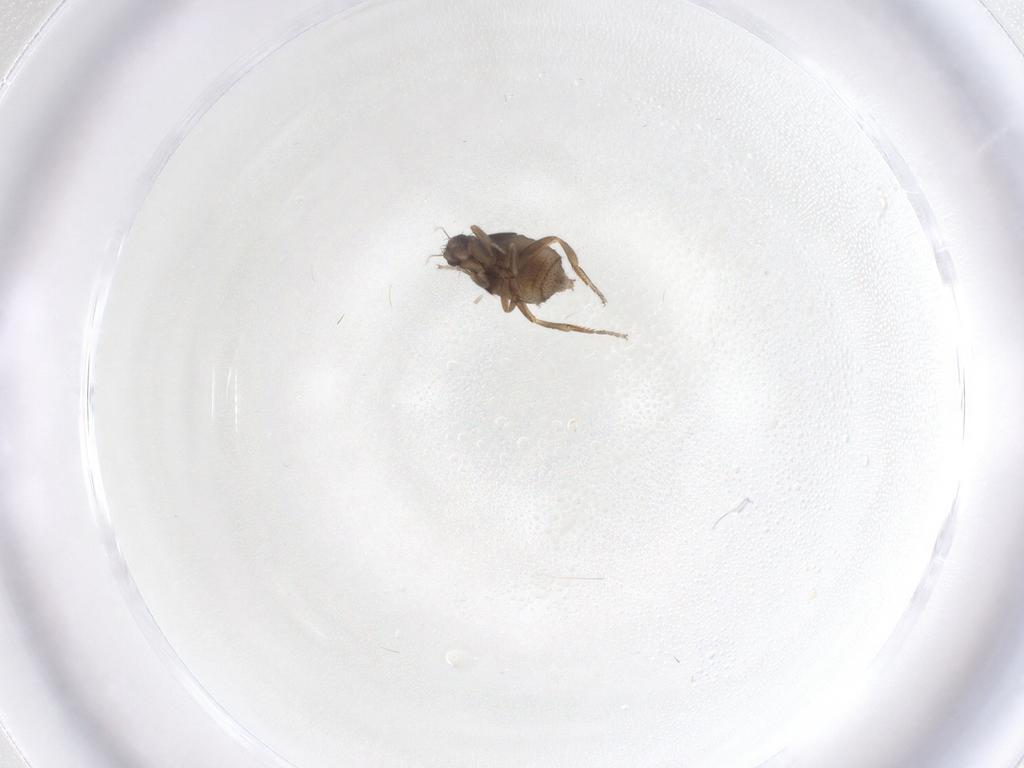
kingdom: Animalia
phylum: Arthropoda
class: Insecta
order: Diptera
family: Phoridae
